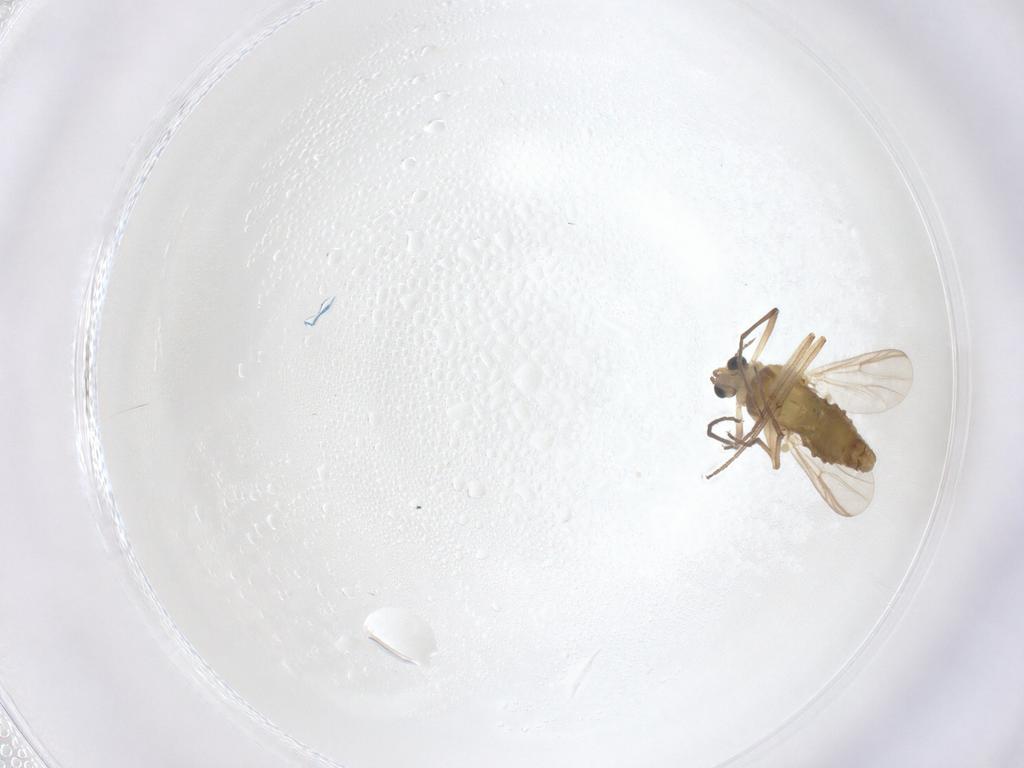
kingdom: Animalia
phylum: Arthropoda
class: Insecta
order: Diptera
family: Chironomidae
